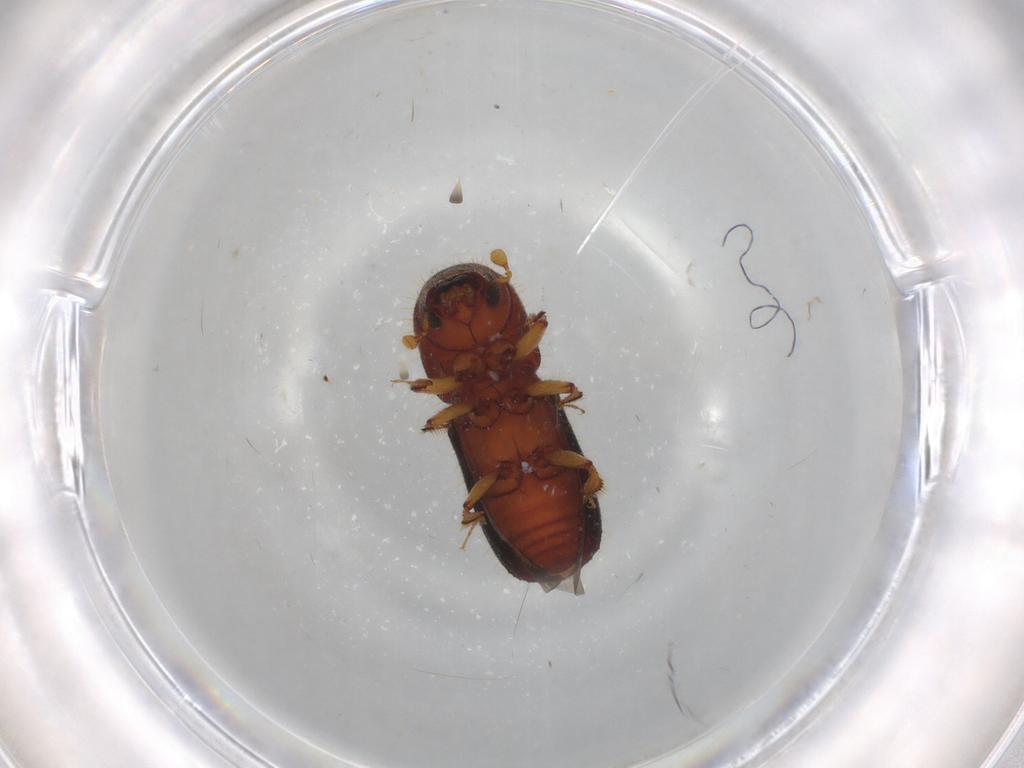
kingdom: Animalia
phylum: Arthropoda
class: Insecta
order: Coleoptera
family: Curculionidae
